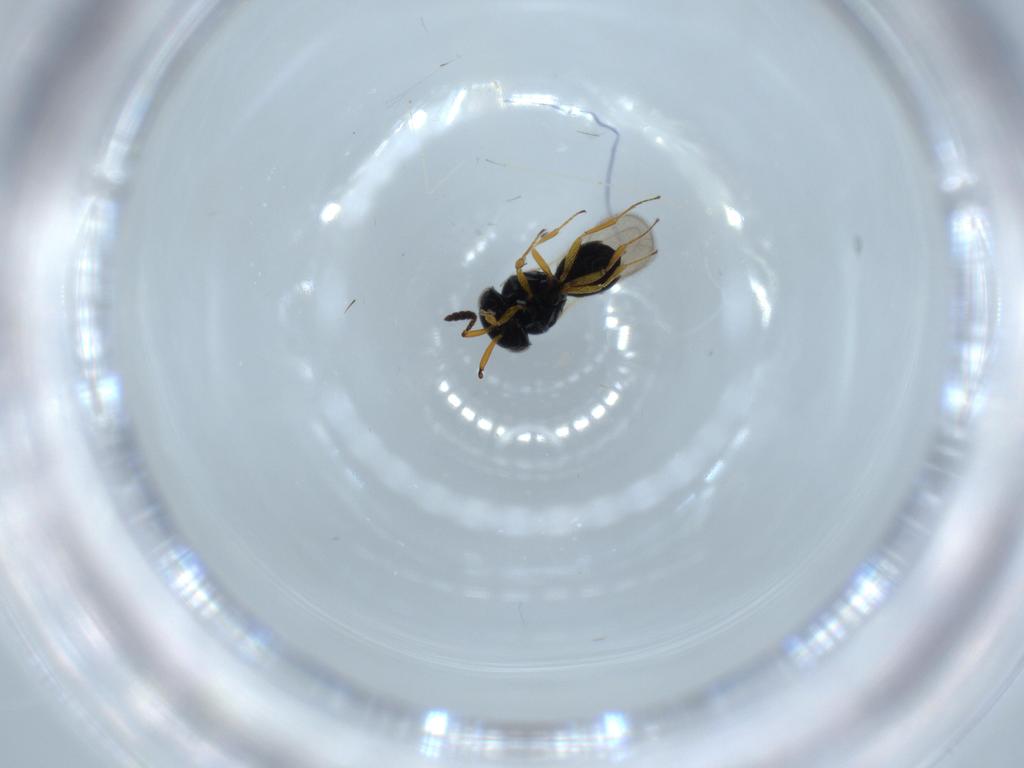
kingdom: Animalia
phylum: Arthropoda
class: Insecta
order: Hymenoptera
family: Scelionidae
